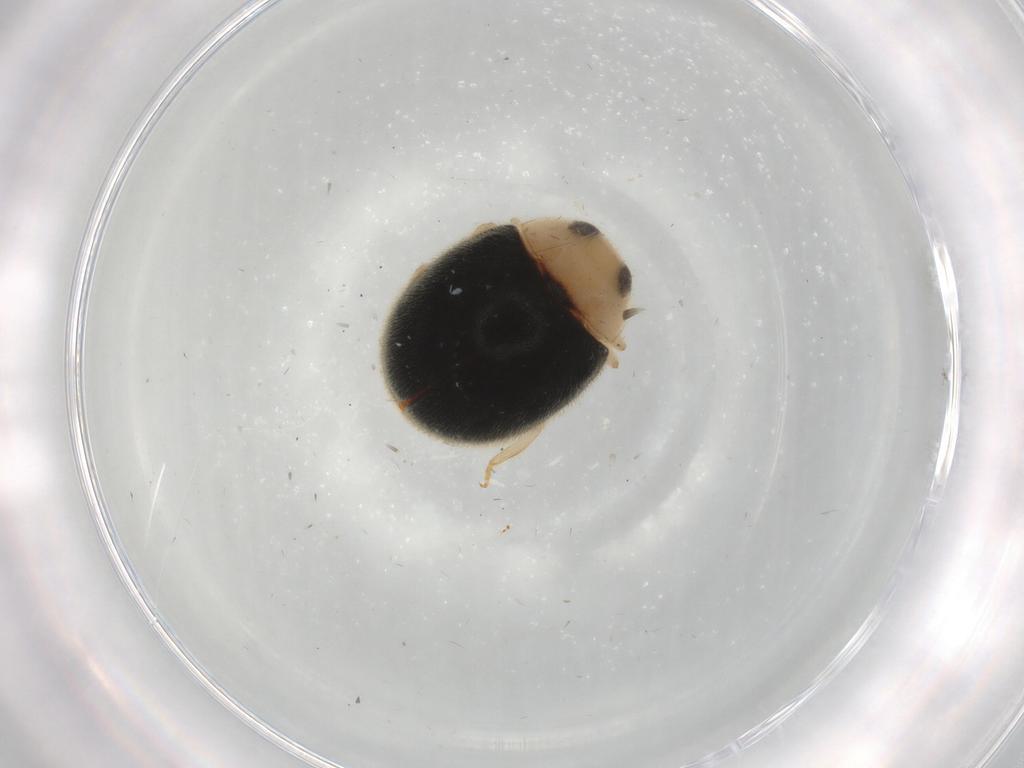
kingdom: Animalia
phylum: Arthropoda
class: Insecta
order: Coleoptera
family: Coccinellidae
